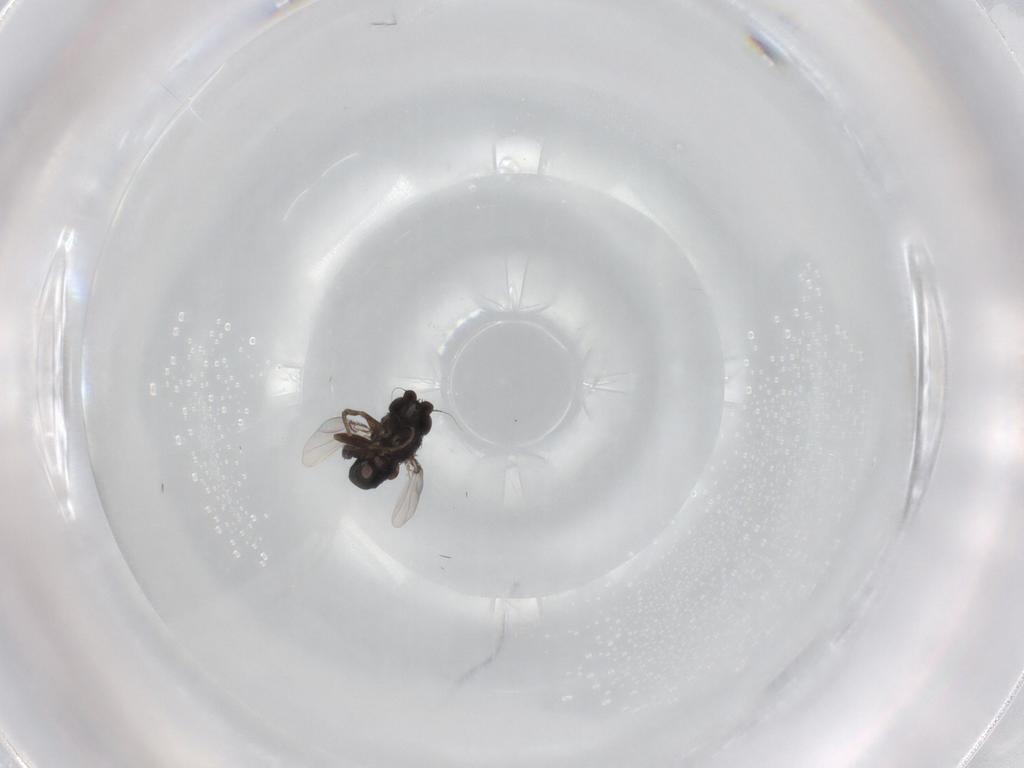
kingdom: Animalia
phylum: Arthropoda
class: Insecta
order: Diptera
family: Phoridae
